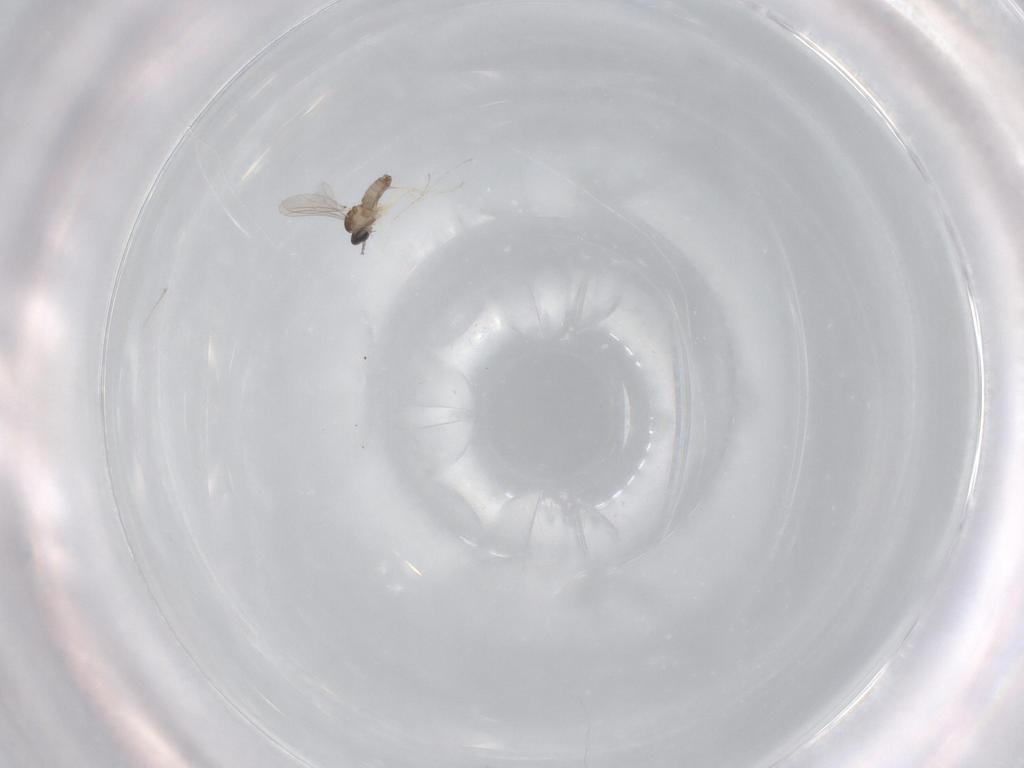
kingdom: Animalia
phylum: Arthropoda
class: Insecta
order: Diptera
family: Cecidomyiidae
